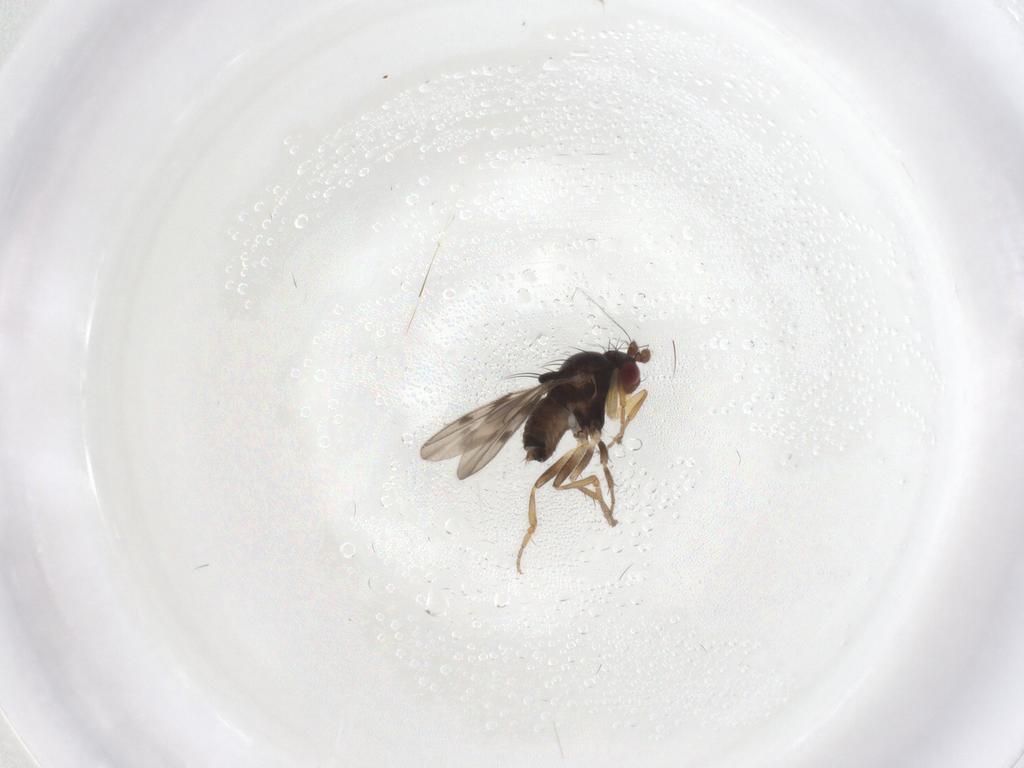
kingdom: Animalia
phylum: Arthropoda
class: Insecta
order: Diptera
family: Sphaeroceridae
